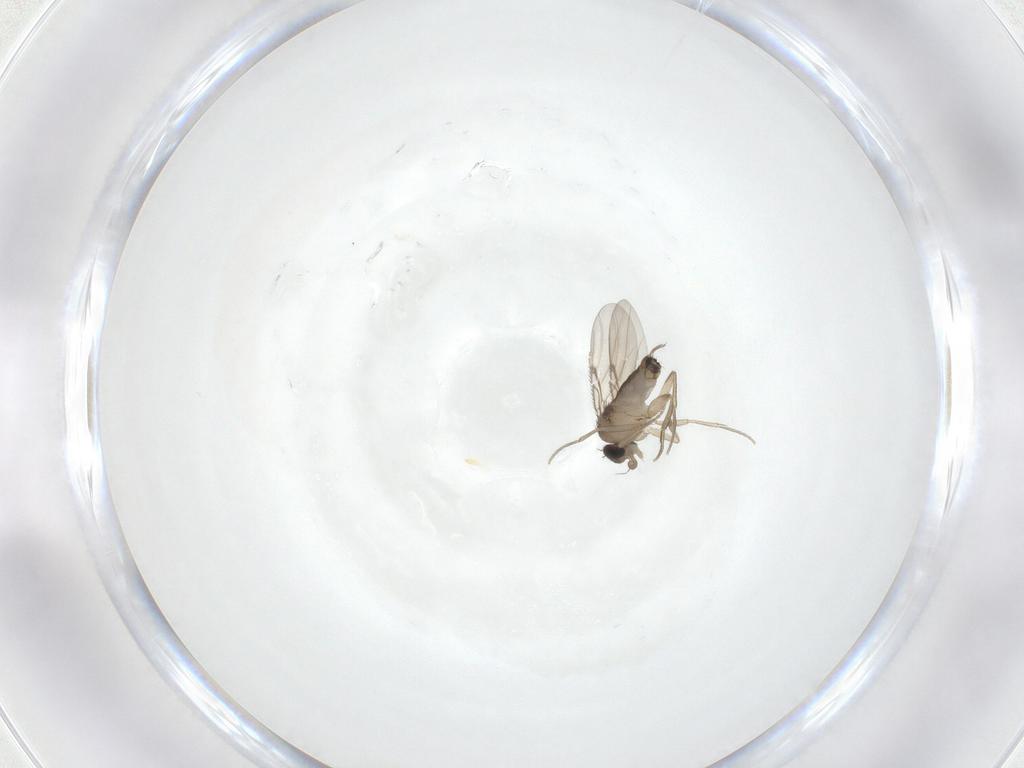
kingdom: Animalia
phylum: Arthropoda
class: Insecta
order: Diptera
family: Phoridae
